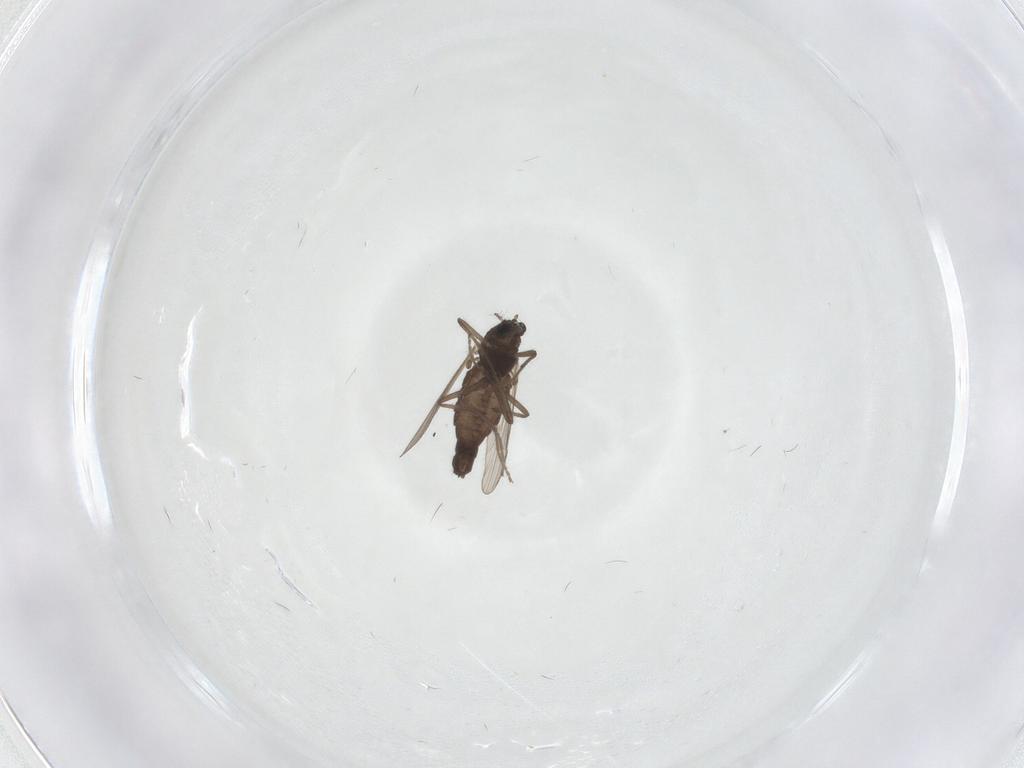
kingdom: Animalia
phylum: Arthropoda
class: Insecta
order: Diptera
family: Chironomidae
